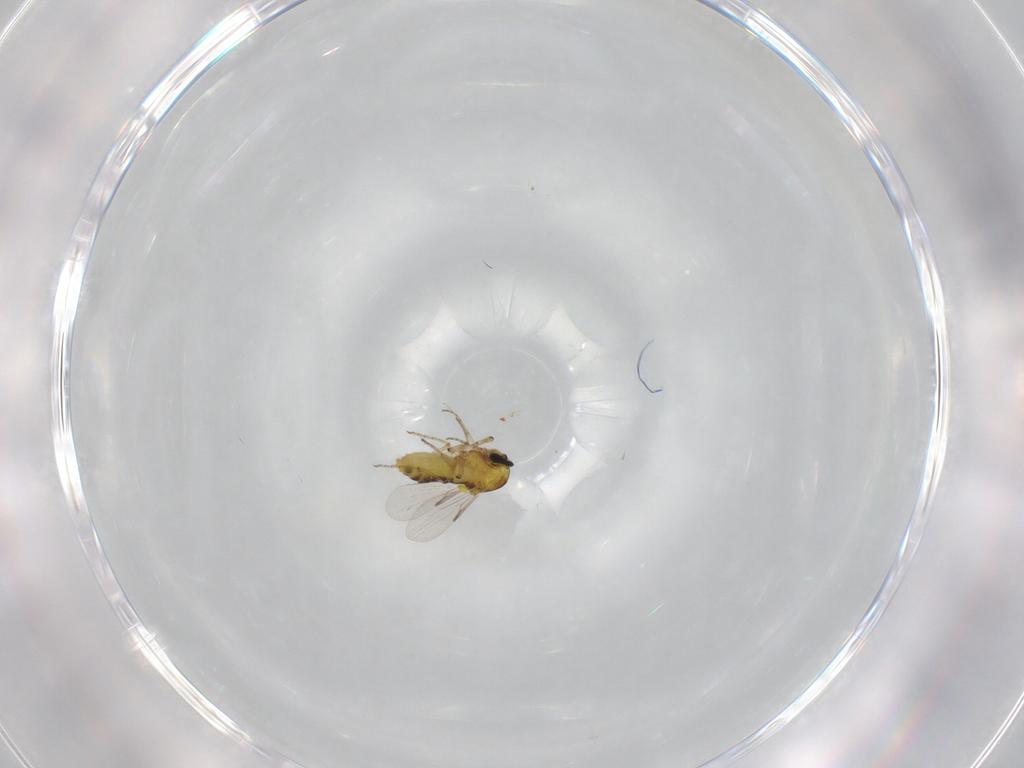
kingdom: Animalia
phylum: Arthropoda
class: Insecta
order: Diptera
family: Ceratopogonidae
